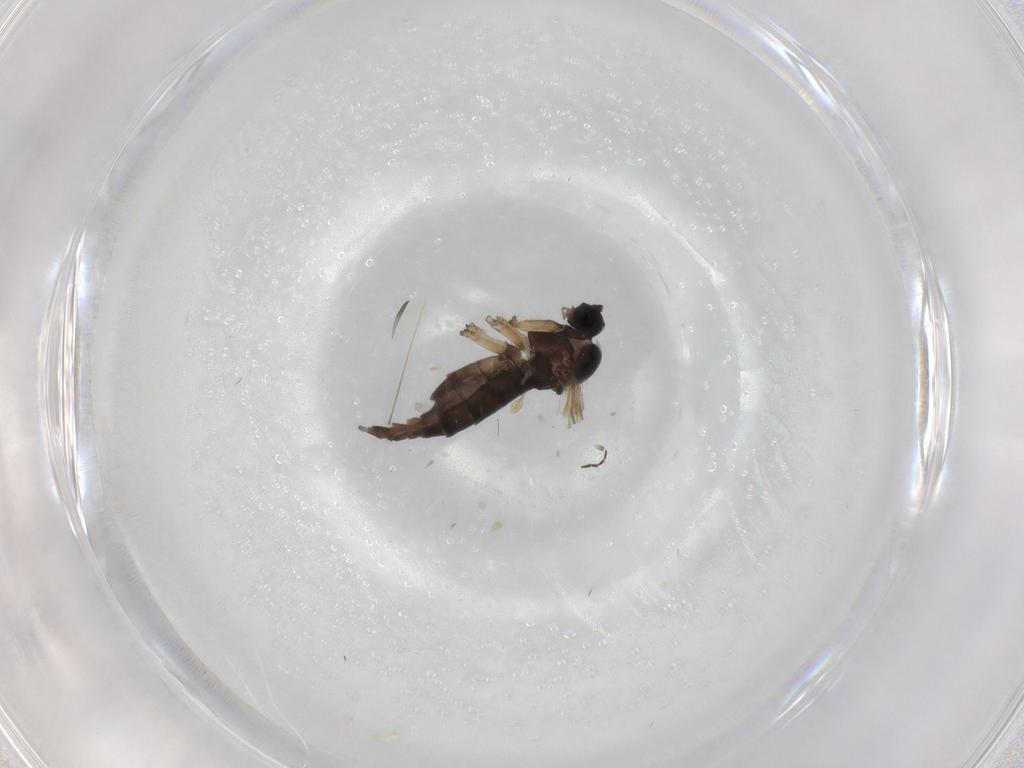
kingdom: Animalia
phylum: Arthropoda
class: Insecta
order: Diptera
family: Sciaridae
